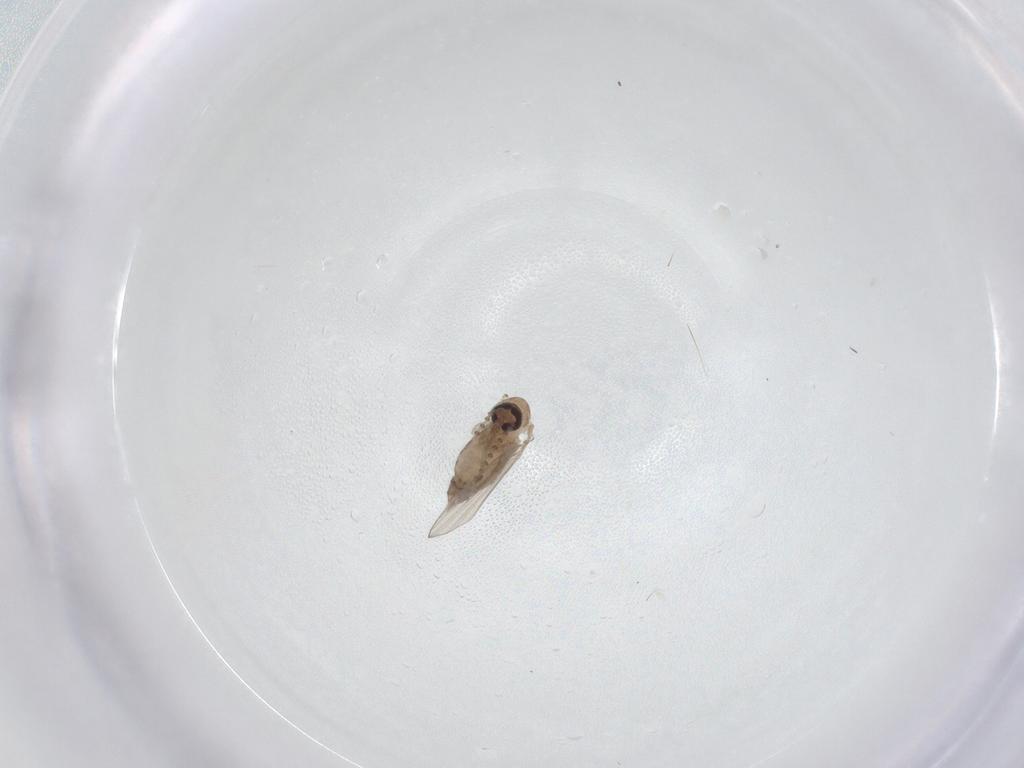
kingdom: Animalia
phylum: Arthropoda
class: Insecta
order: Diptera
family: Psychodidae
